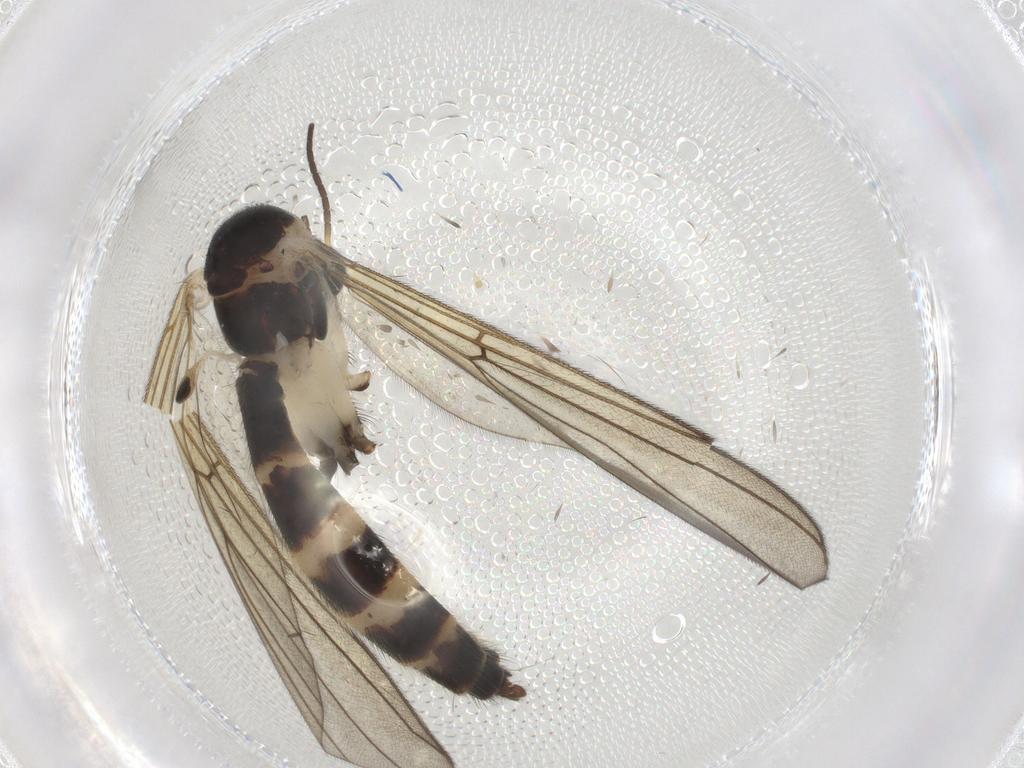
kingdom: Animalia
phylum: Arthropoda
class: Insecta
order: Diptera
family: Mycetophilidae
